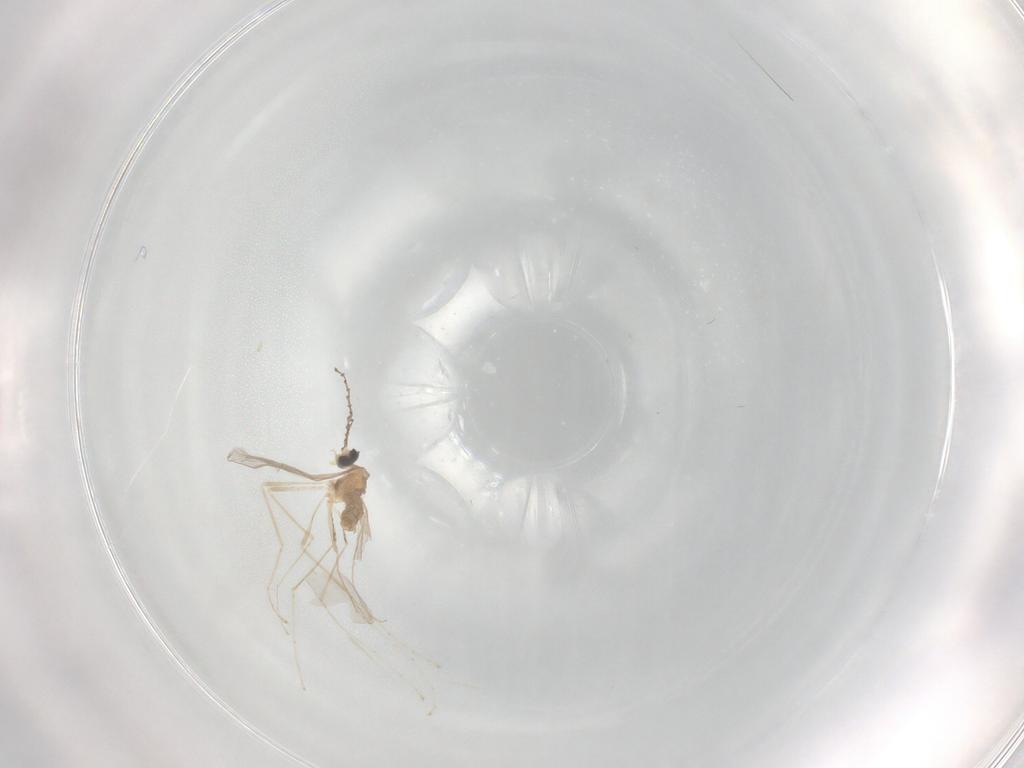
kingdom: Animalia
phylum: Arthropoda
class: Insecta
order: Diptera
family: Cecidomyiidae
